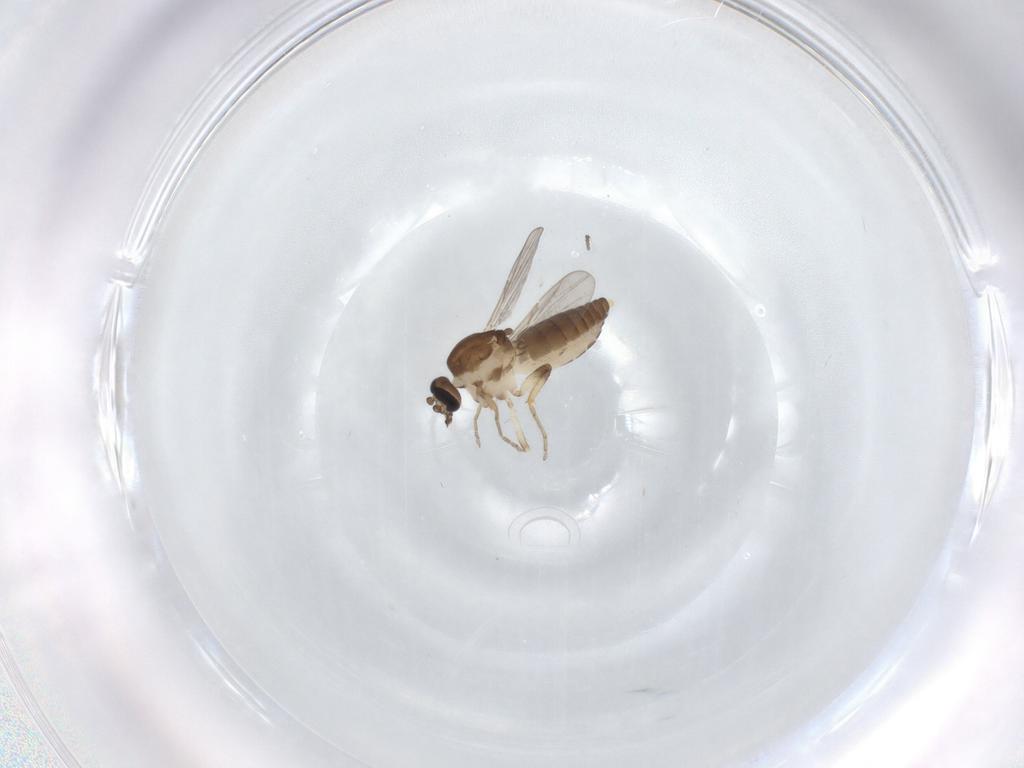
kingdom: Animalia
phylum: Arthropoda
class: Insecta
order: Diptera
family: Ceratopogonidae
